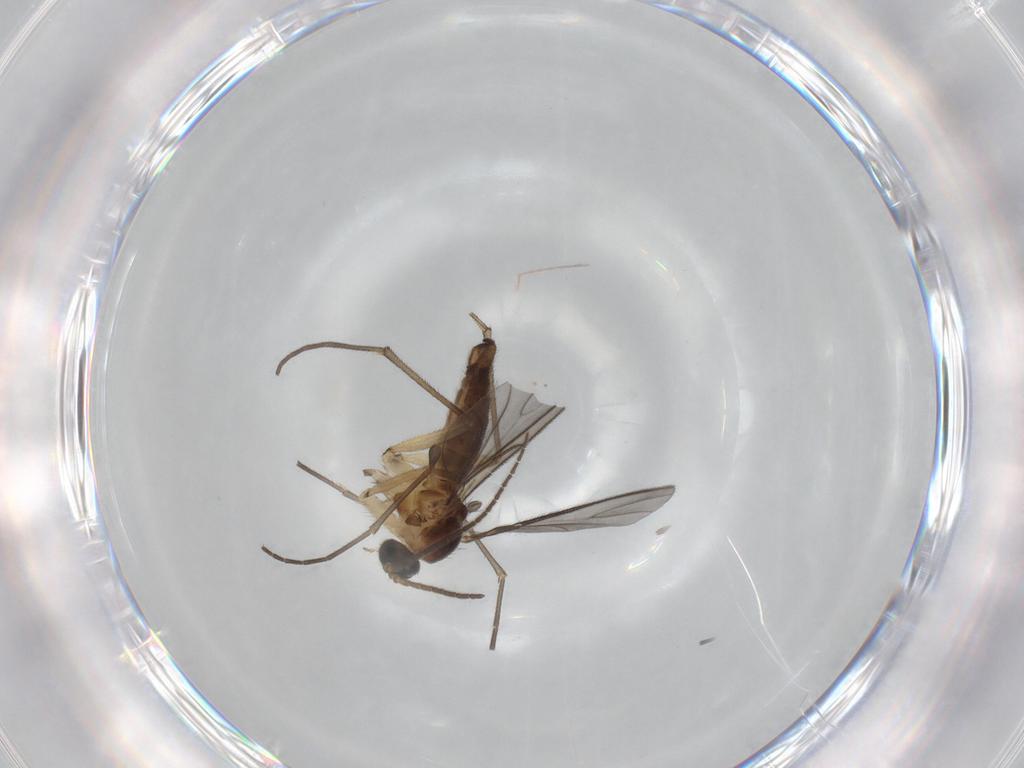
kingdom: Animalia
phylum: Arthropoda
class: Insecta
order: Diptera
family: Sciaridae
